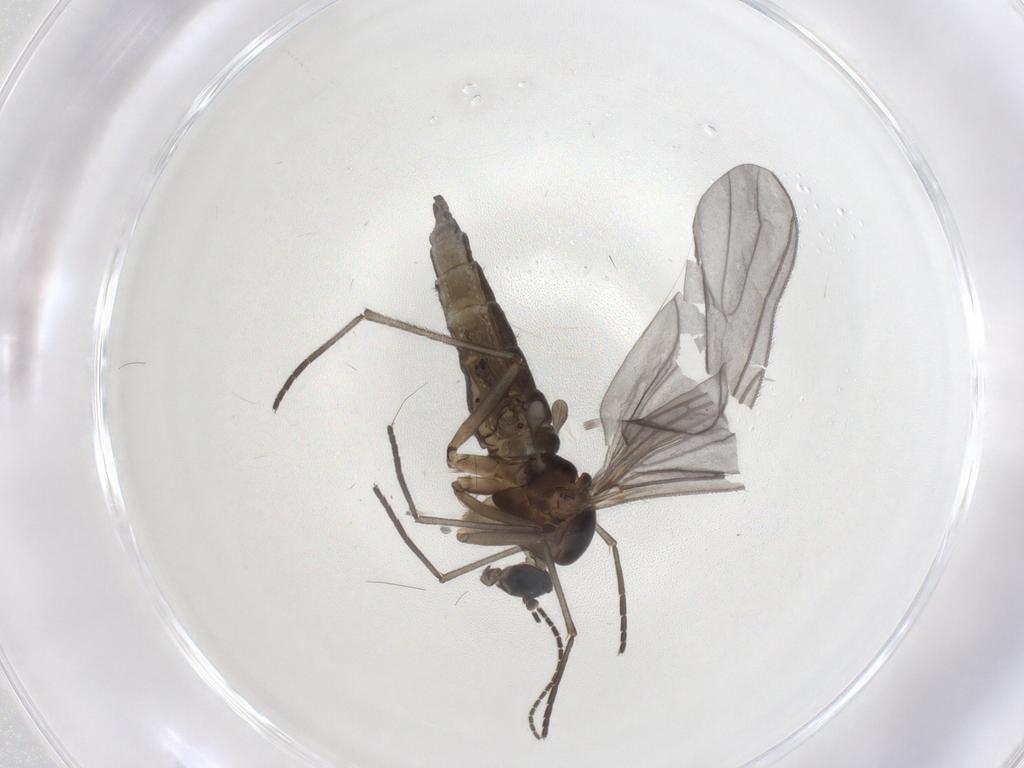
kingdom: Animalia
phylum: Arthropoda
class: Insecta
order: Diptera
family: Sciaridae
